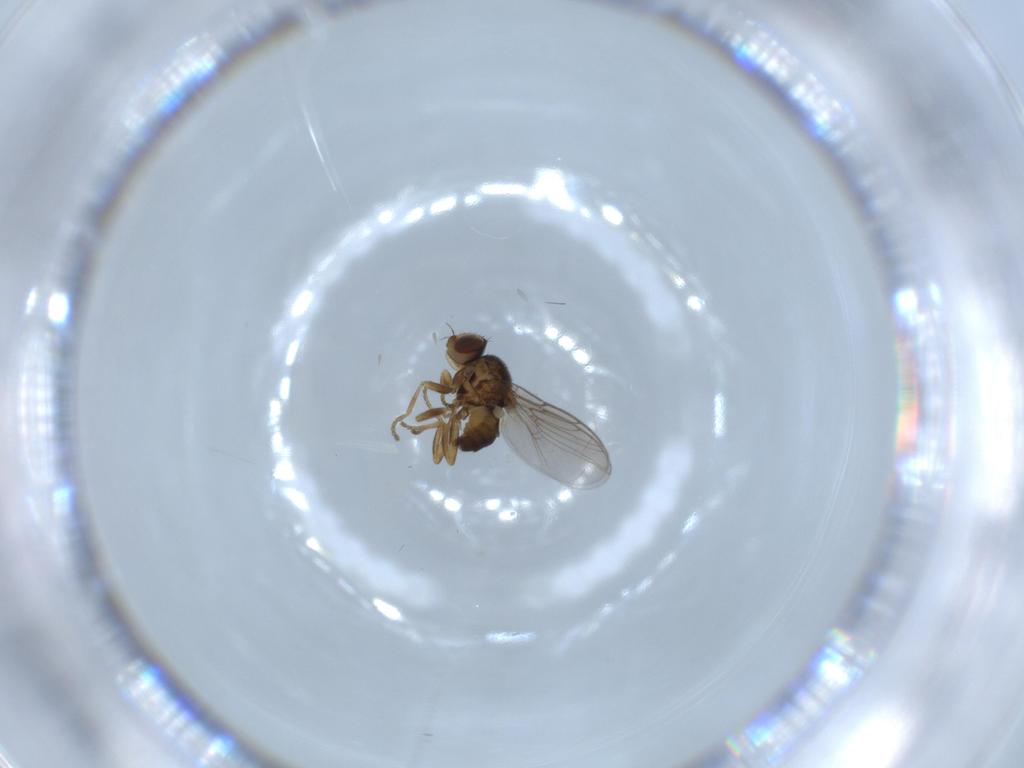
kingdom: Animalia
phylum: Arthropoda
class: Insecta
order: Diptera
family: Chloropidae
